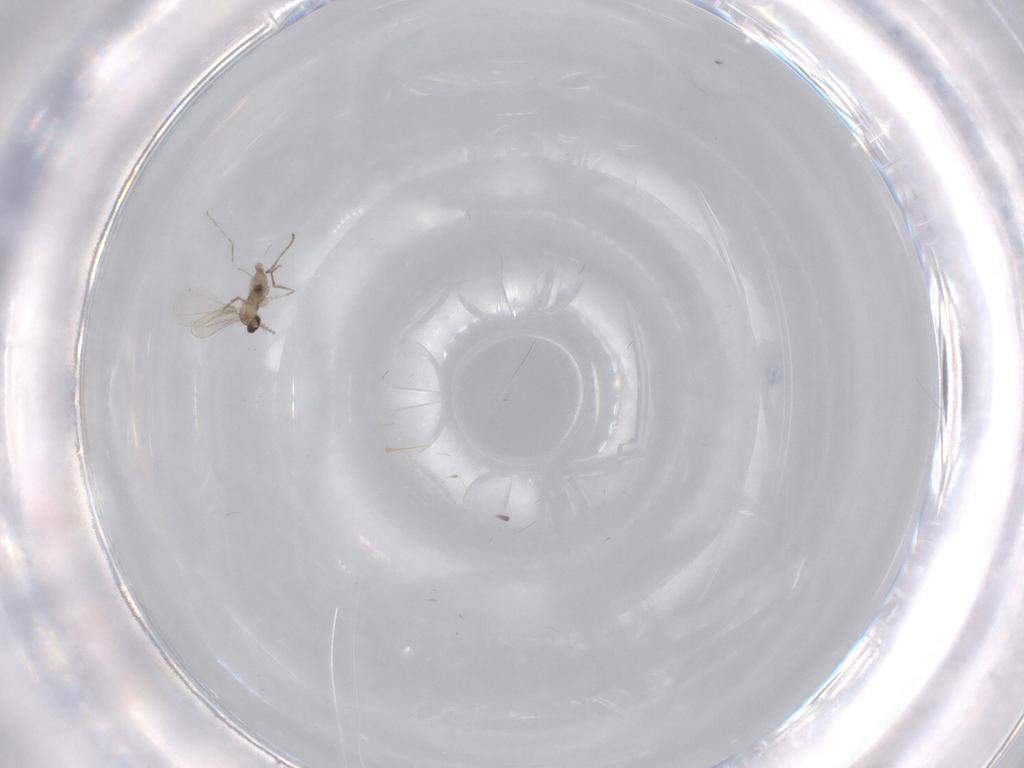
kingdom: Animalia
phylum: Arthropoda
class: Insecta
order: Diptera
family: Cecidomyiidae
